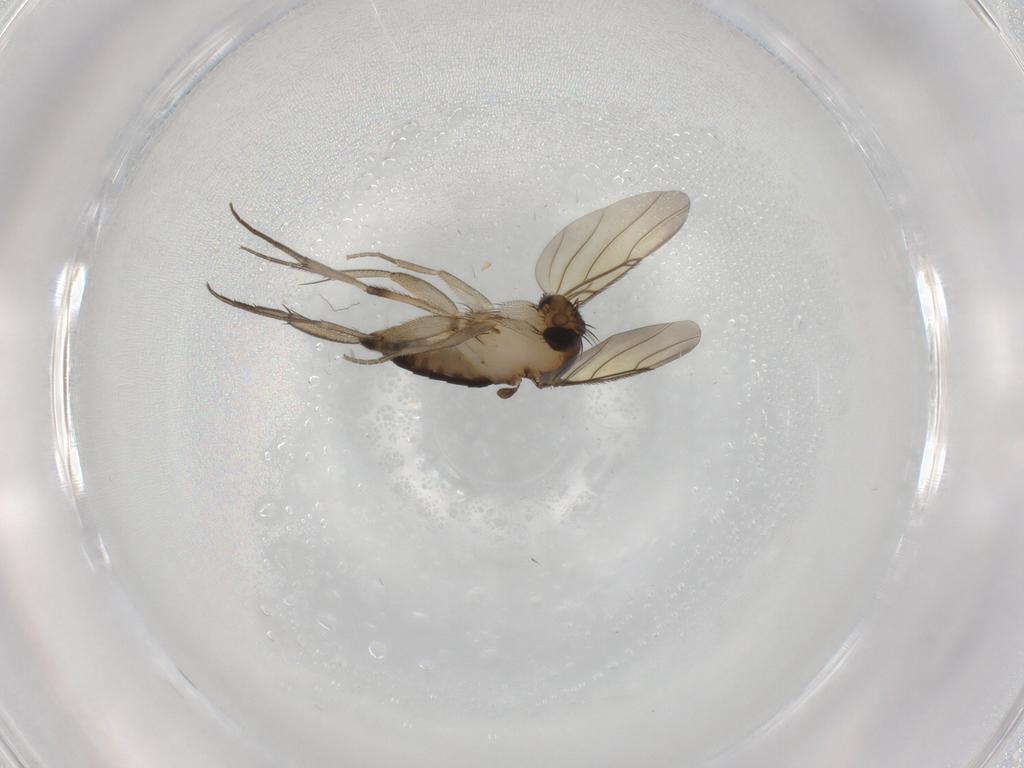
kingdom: Animalia
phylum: Arthropoda
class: Insecta
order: Diptera
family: Phoridae
